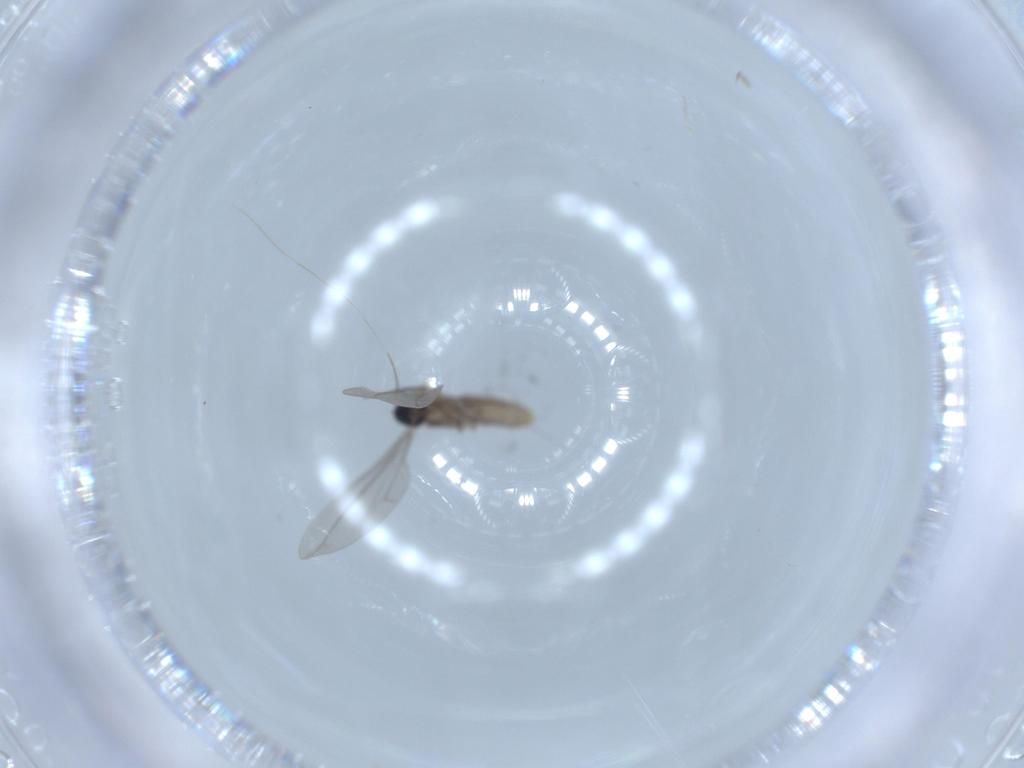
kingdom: Animalia
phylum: Arthropoda
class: Insecta
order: Diptera
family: Cecidomyiidae
